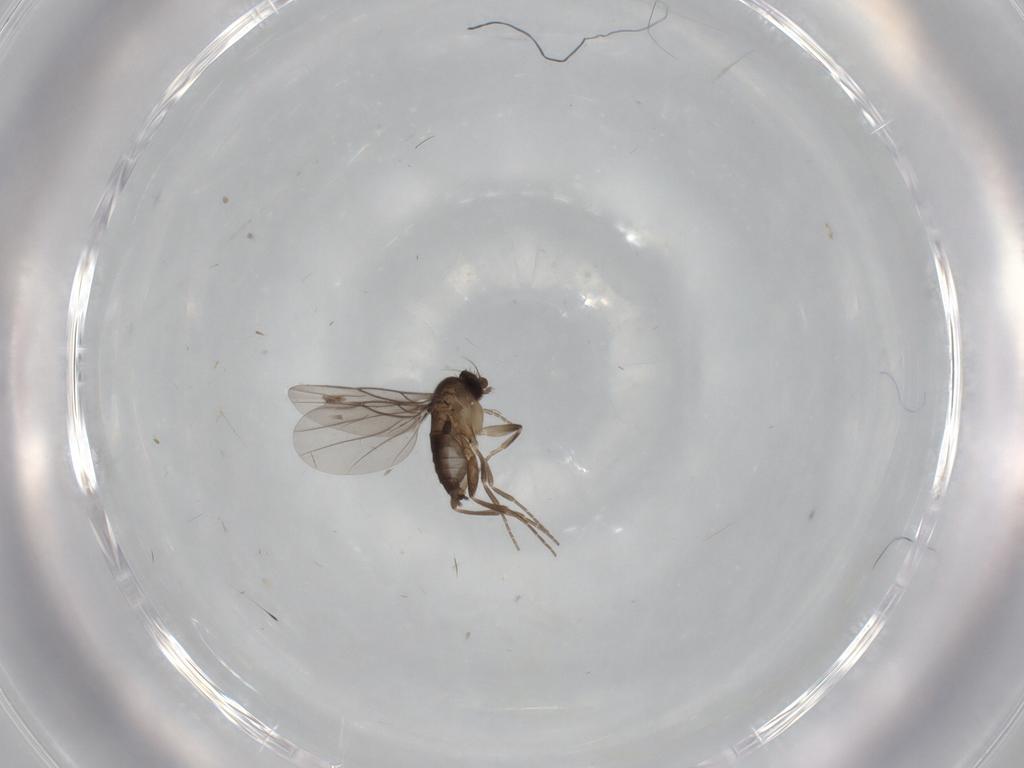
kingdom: Animalia
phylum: Arthropoda
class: Insecta
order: Diptera
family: Phoridae
